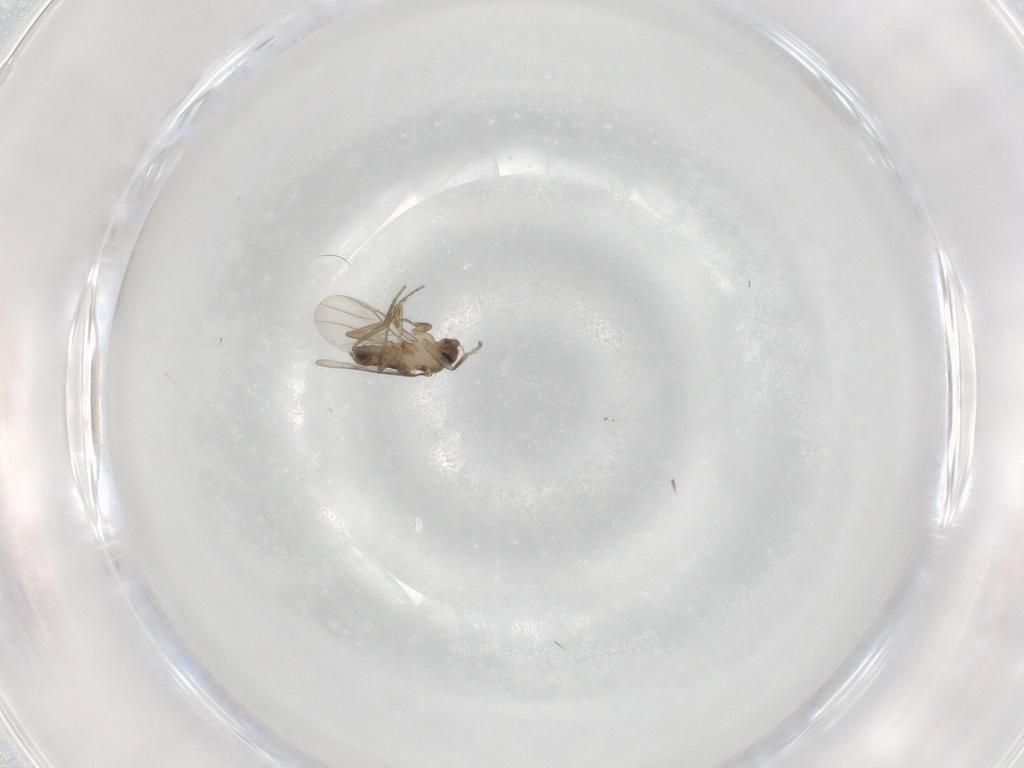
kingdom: Animalia
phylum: Arthropoda
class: Insecta
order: Diptera
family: Phoridae
